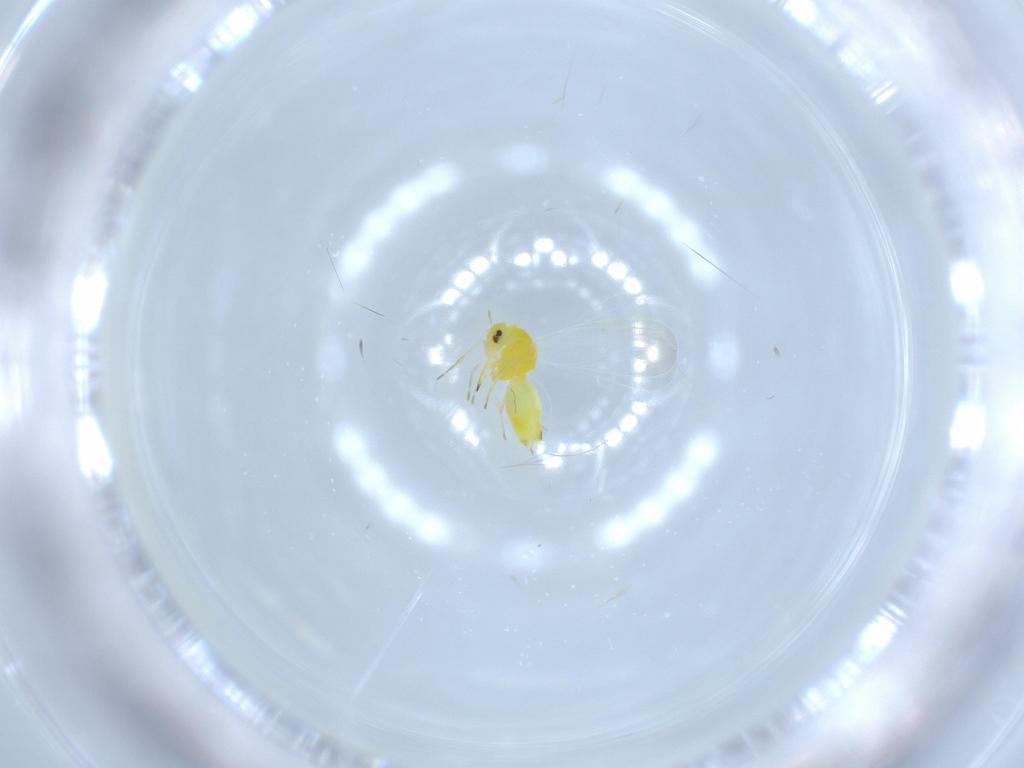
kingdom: Animalia
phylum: Arthropoda
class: Insecta
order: Hemiptera
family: Aleyrodidae
